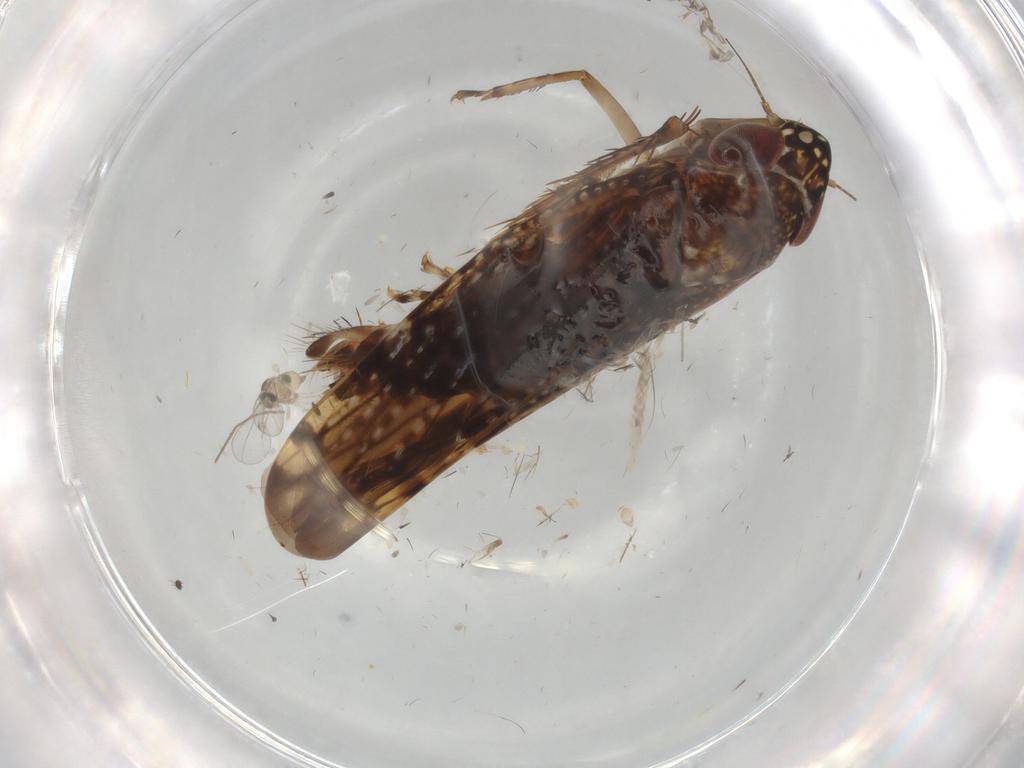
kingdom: Animalia
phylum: Arthropoda
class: Insecta
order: Hemiptera
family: Cicadellidae
